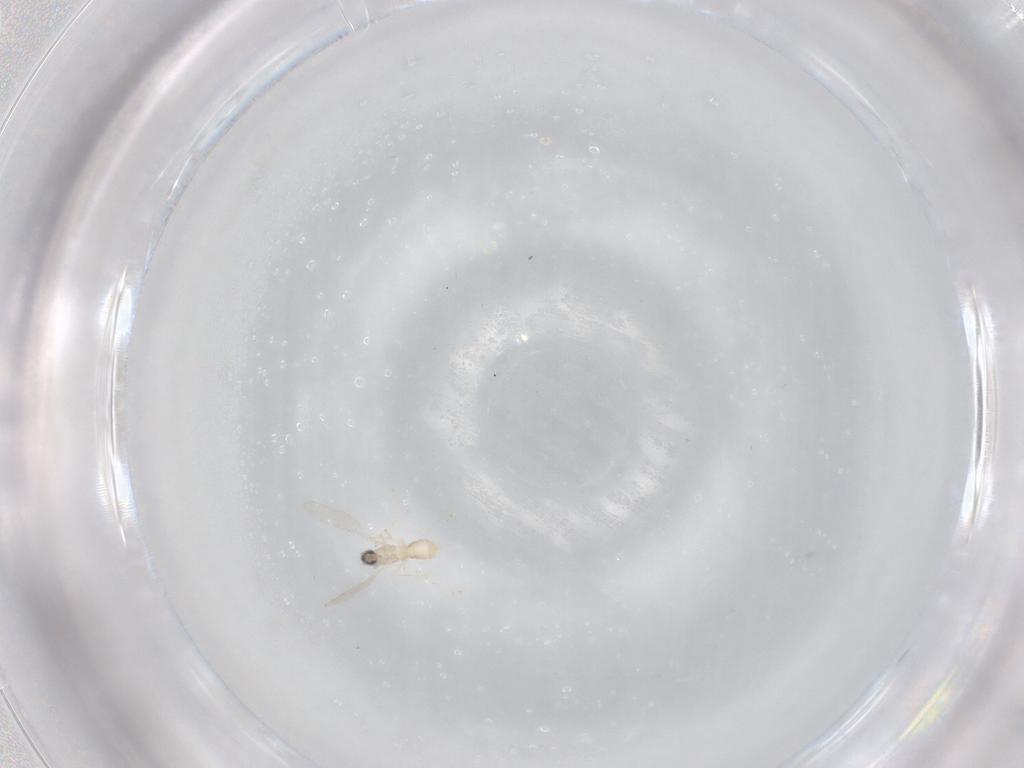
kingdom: Animalia
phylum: Arthropoda
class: Insecta
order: Diptera
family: Cecidomyiidae
